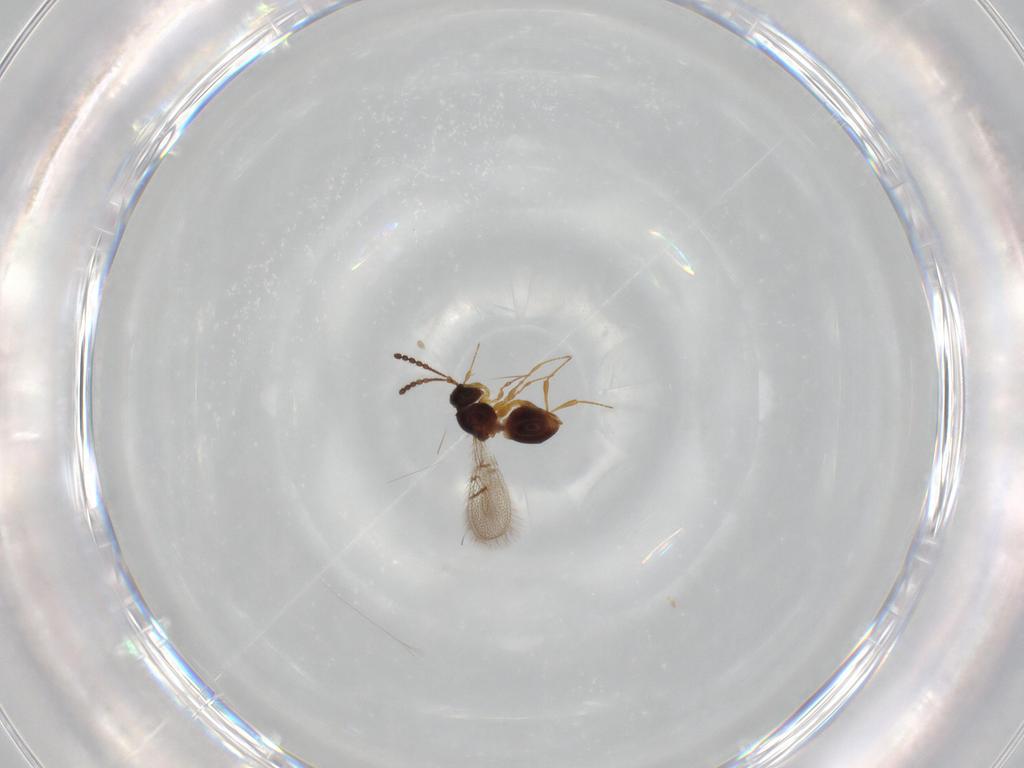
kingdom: Animalia
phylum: Arthropoda
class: Insecta
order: Hymenoptera
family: Figitidae
